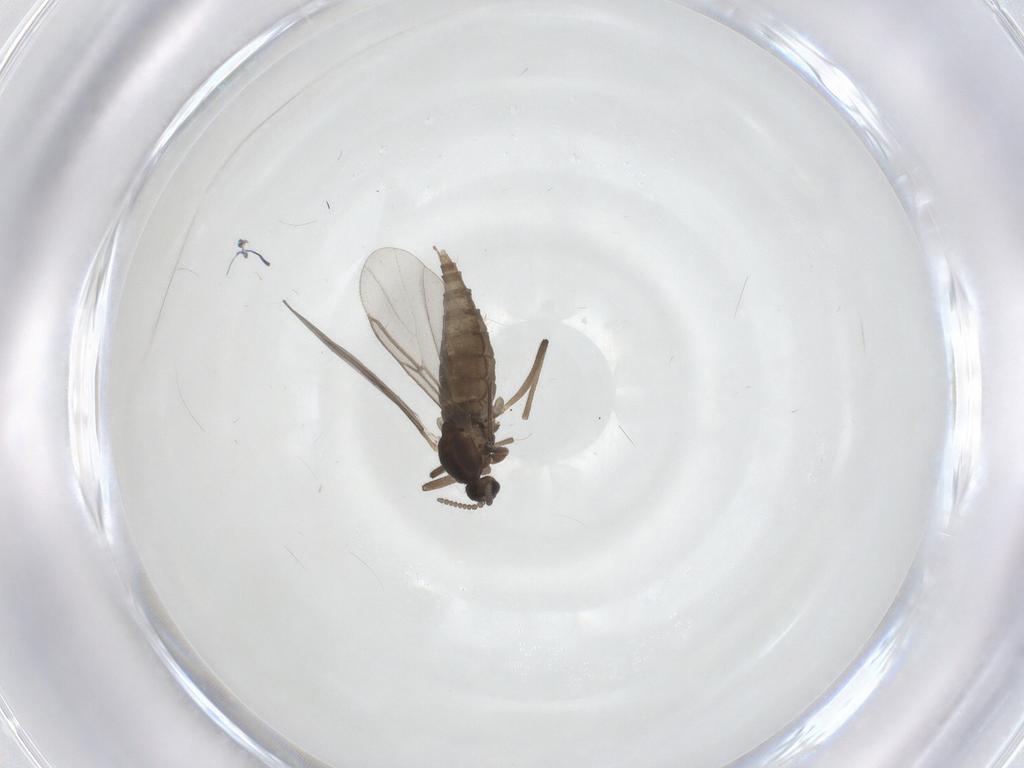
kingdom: Animalia
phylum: Arthropoda
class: Insecta
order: Diptera
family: Cecidomyiidae
